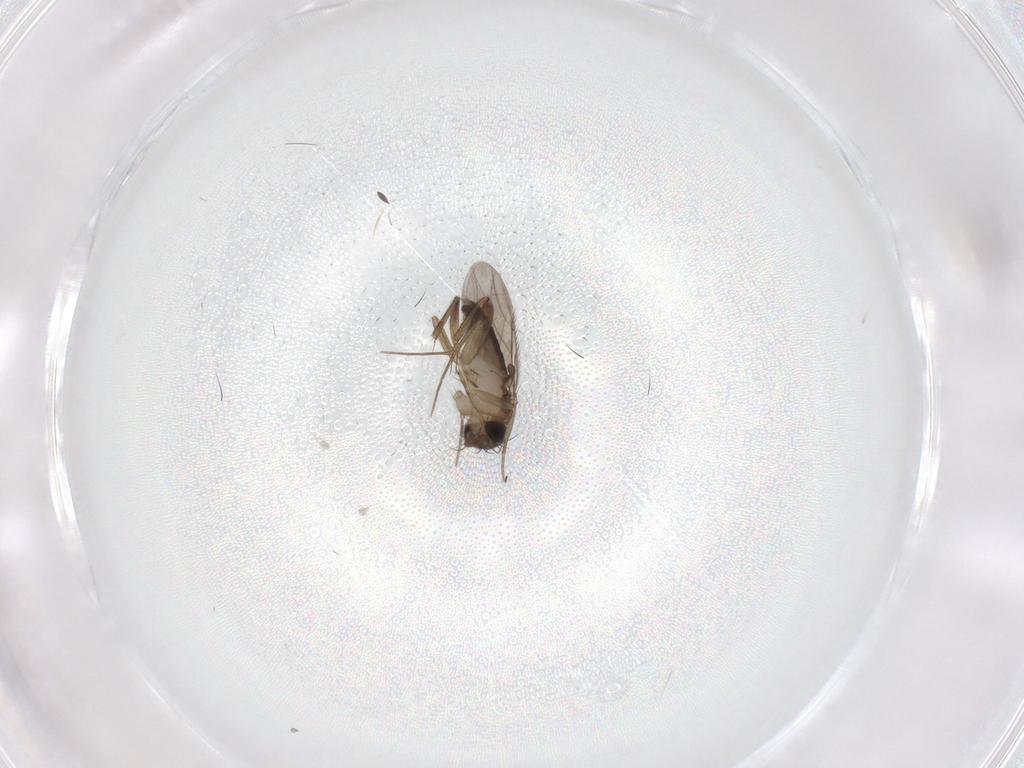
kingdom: Animalia
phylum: Arthropoda
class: Insecta
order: Diptera
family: Phoridae
